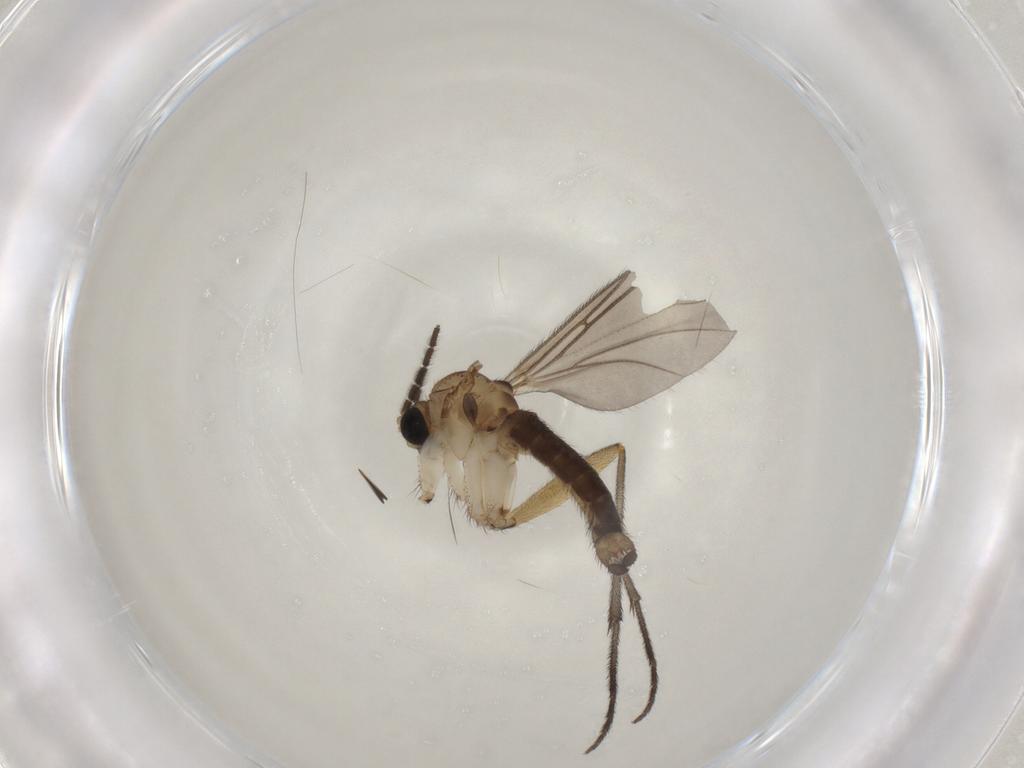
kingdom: Animalia
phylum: Arthropoda
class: Insecta
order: Diptera
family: Sciaridae
